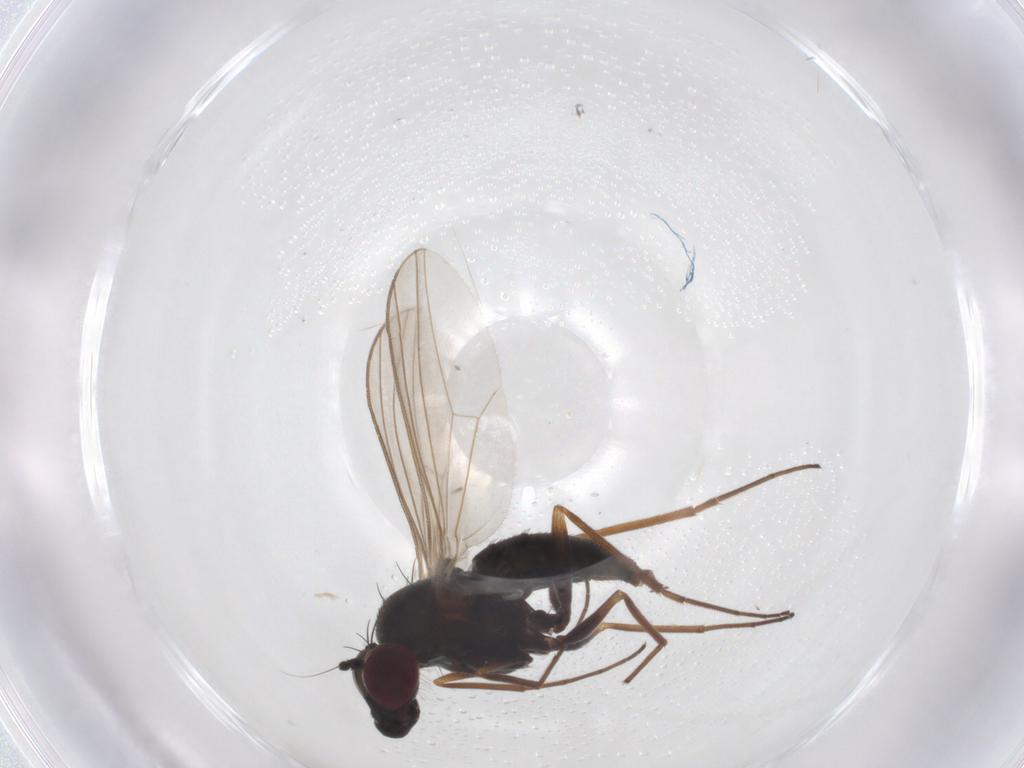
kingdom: Animalia
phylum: Arthropoda
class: Insecta
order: Diptera
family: Dolichopodidae
